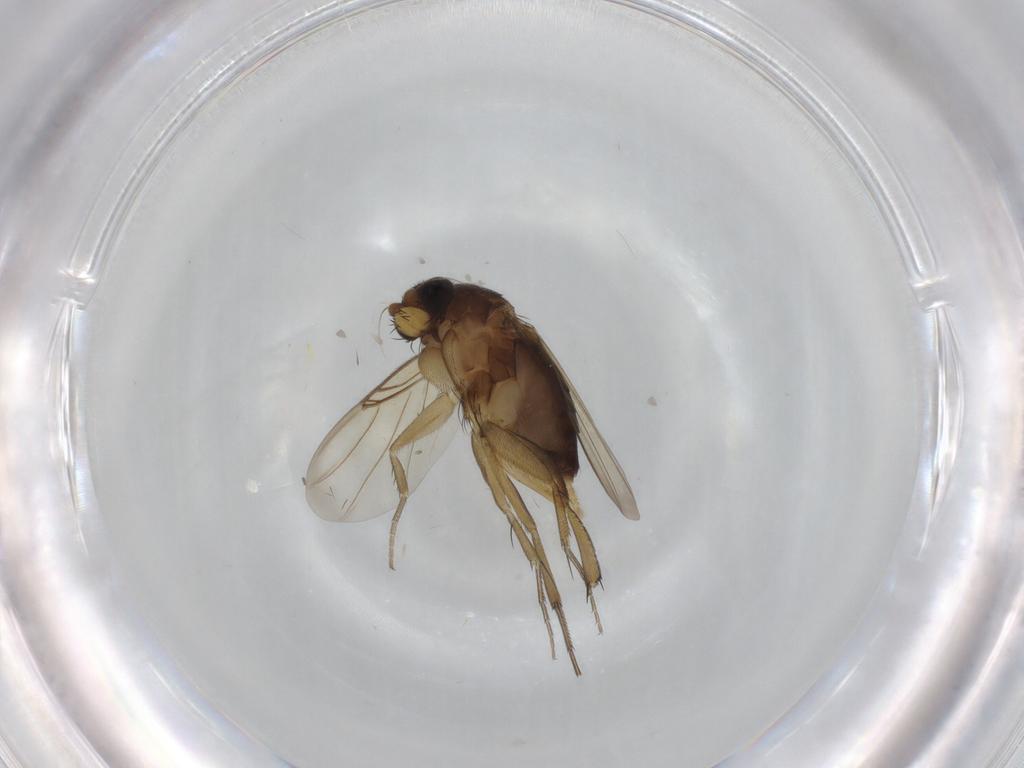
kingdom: Animalia
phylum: Arthropoda
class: Insecta
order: Diptera
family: Phoridae
